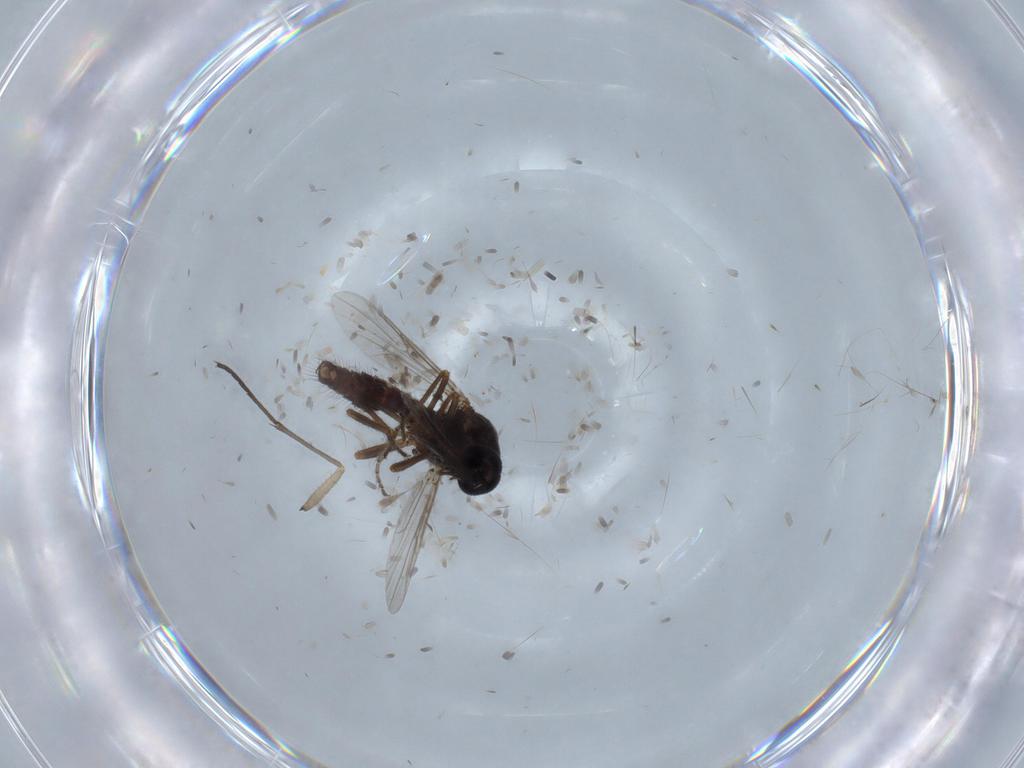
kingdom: Animalia
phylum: Arthropoda
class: Insecta
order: Diptera
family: Ceratopogonidae
